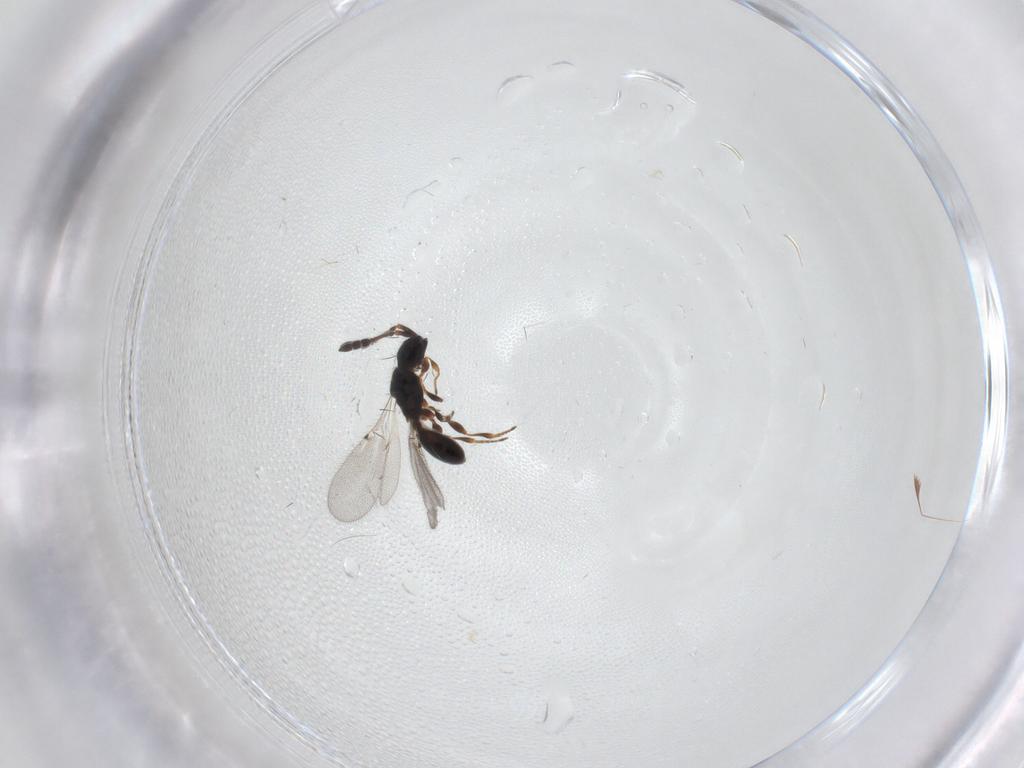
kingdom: Animalia
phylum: Arthropoda
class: Insecta
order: Hymenoptera
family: Diapriidae
